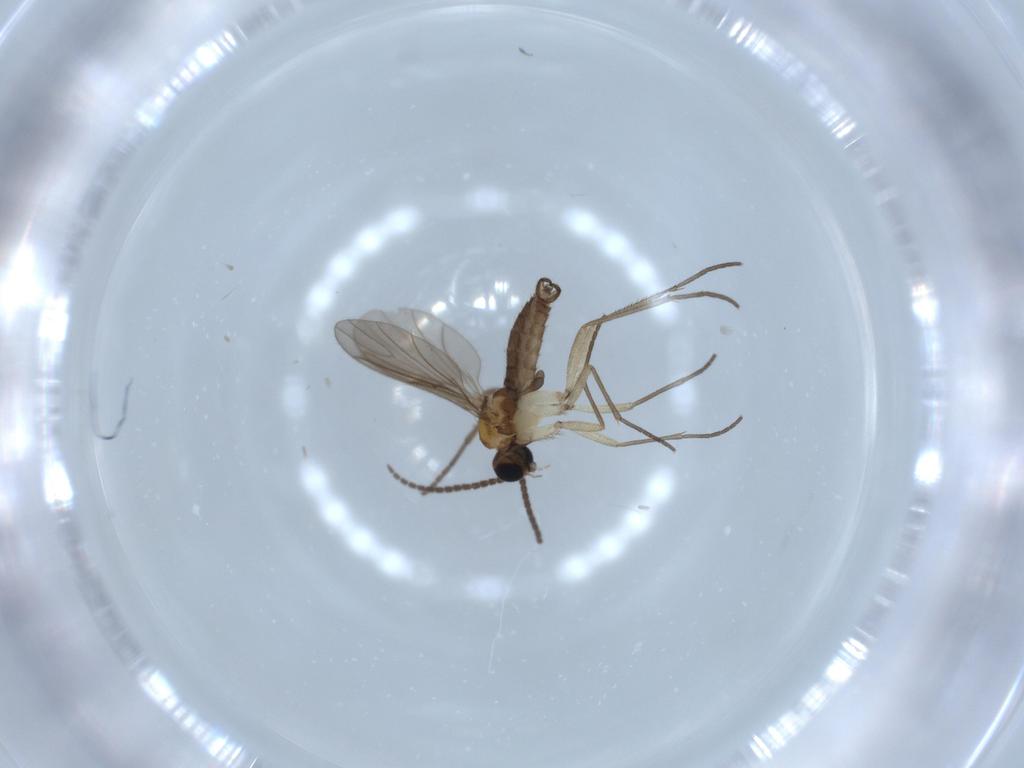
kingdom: Animalia
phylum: Arthropoda
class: Insecta
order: Diptera
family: Sciaridae
